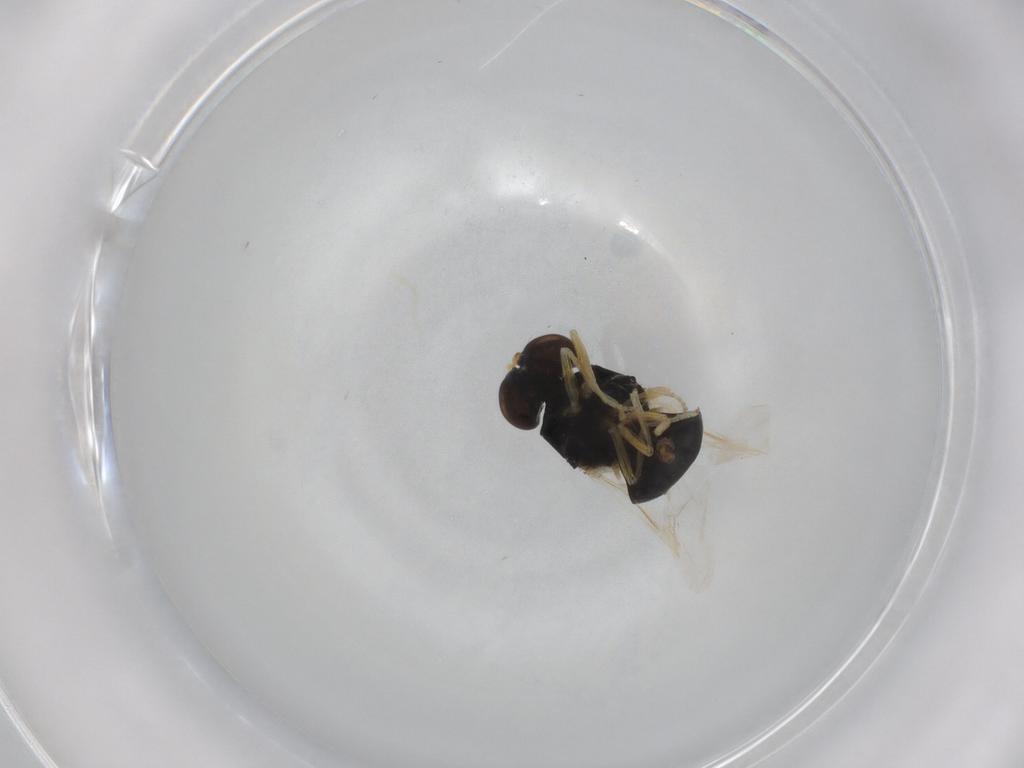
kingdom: Animalia
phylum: Arthropoda
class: Insecta
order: Diptera
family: Stratiomyidae
